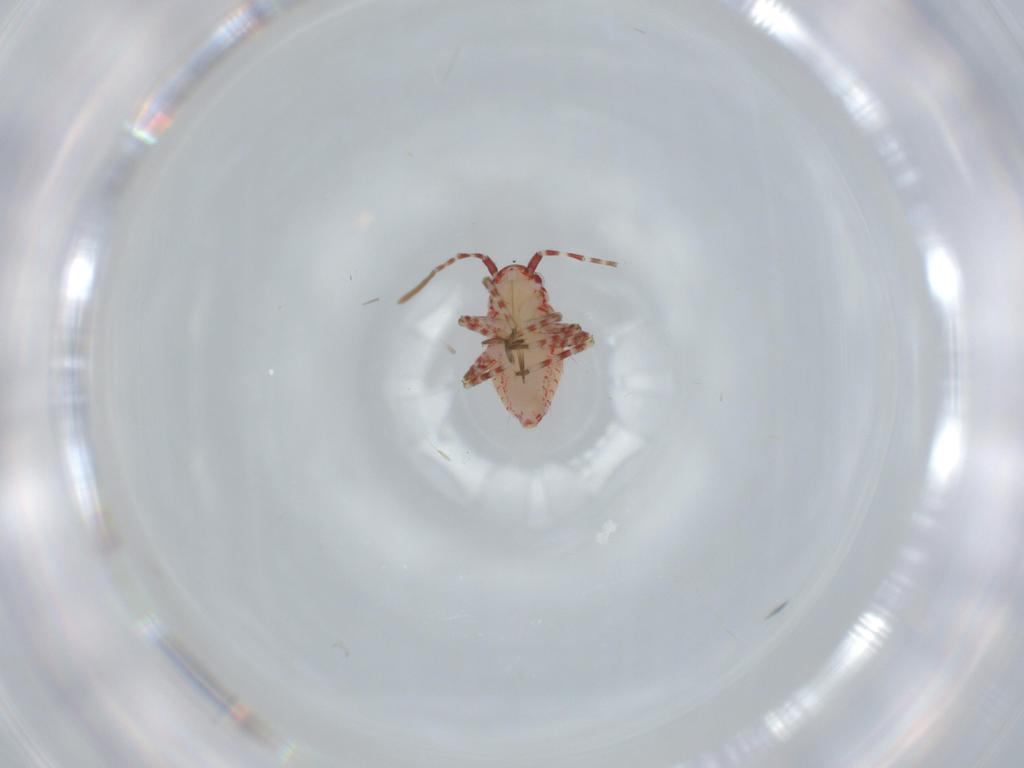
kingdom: Animalia
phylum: Arthropoda
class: Insecta
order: Hemiptera
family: Miridae
